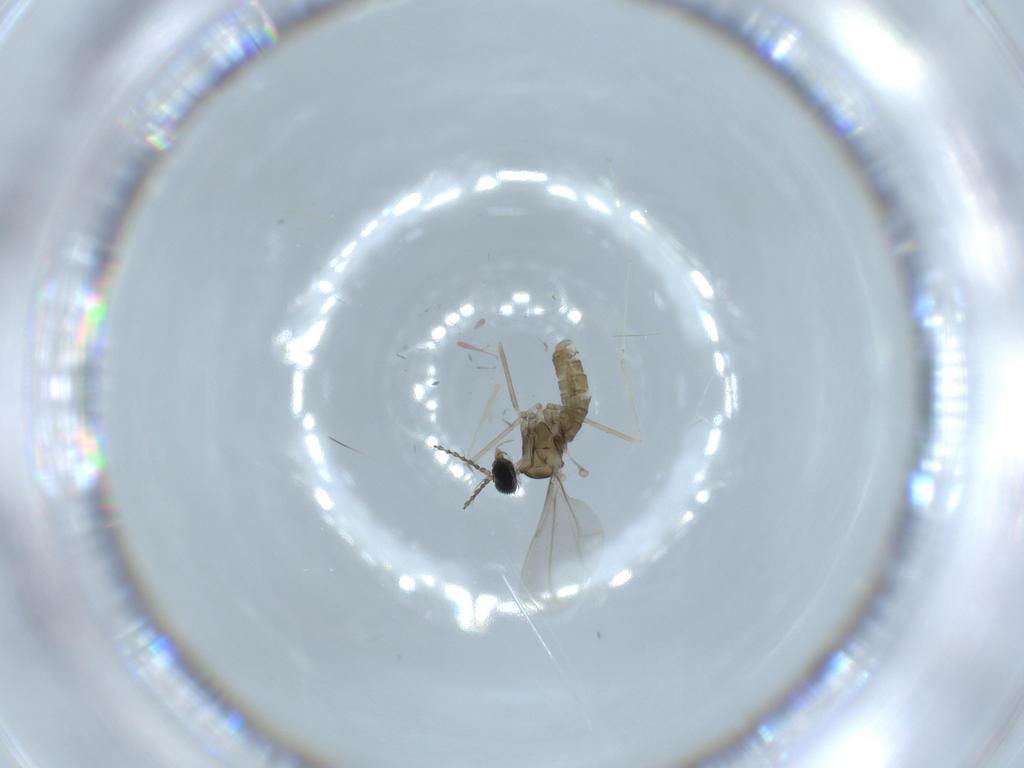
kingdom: Animalia
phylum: Arthropoda
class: Insecta
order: Diptera
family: Cecidomyiidae
